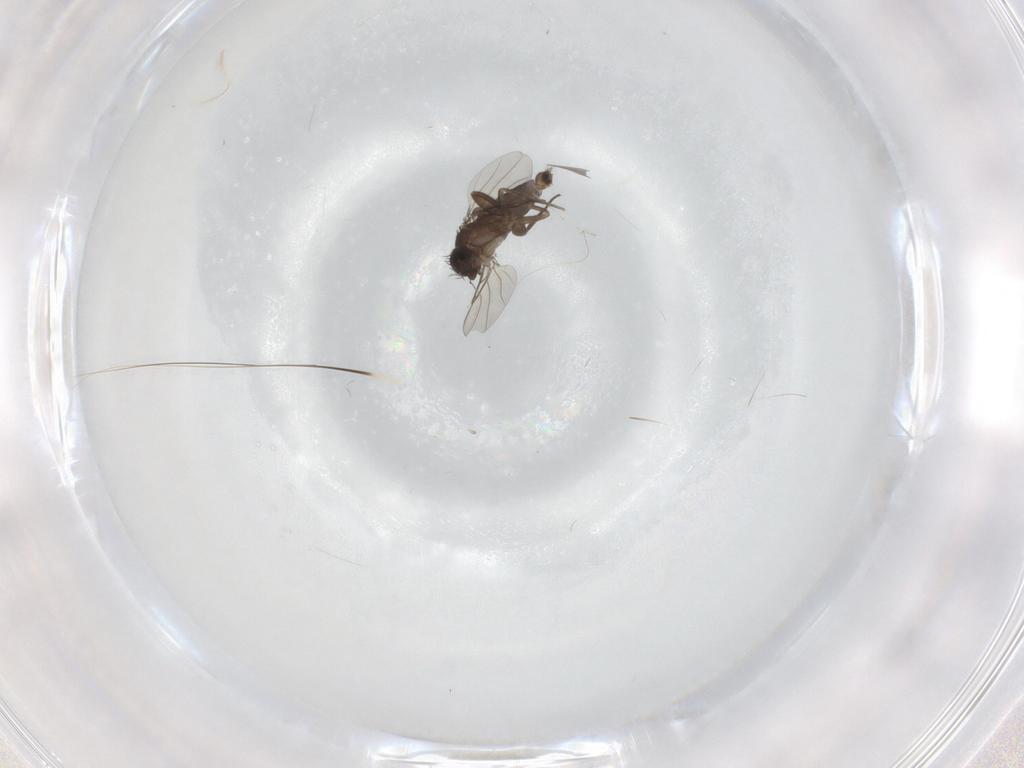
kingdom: Animalia
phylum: Arthropoda
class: Insecta
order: Diptera
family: Phoridae
